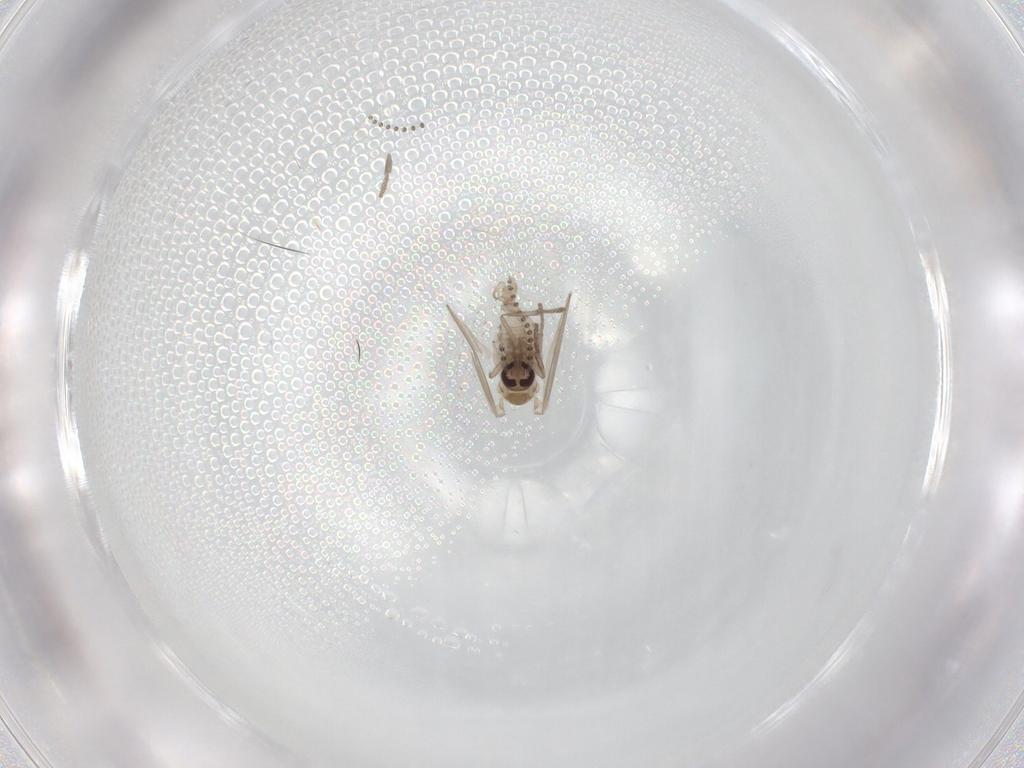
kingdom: Animalia
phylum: Arthropoda
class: Insecta
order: Diptera
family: Psychodidae
